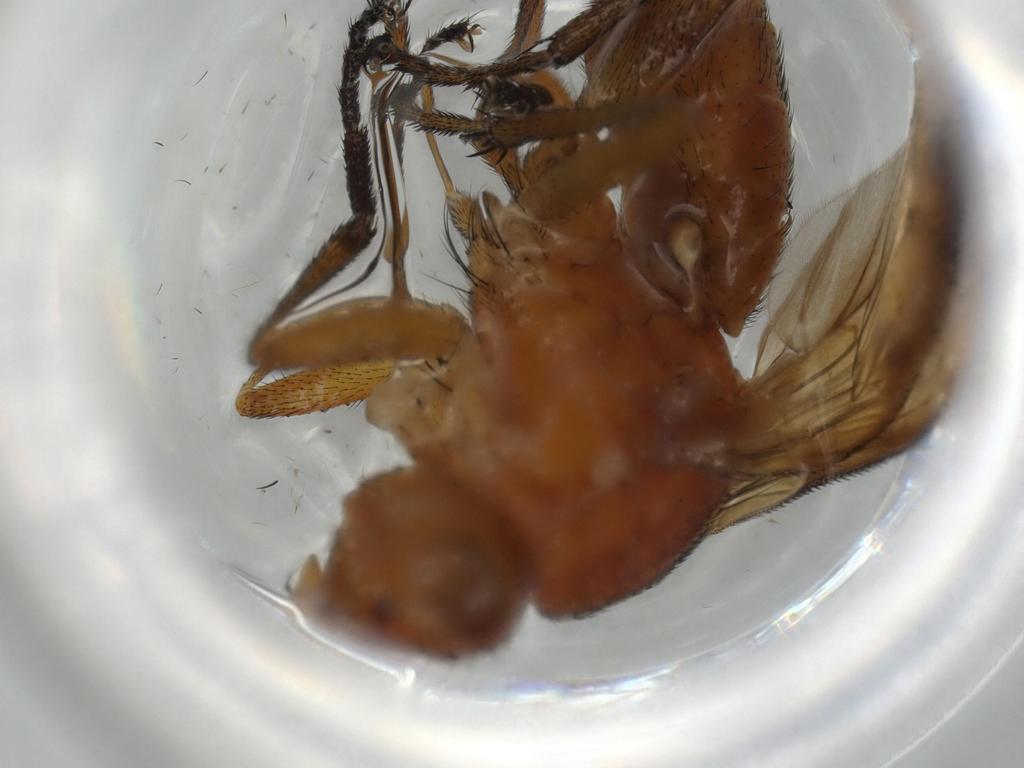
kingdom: Animalia
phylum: Arthropoda
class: Insecta
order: Diptera
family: Sciomyzidae
